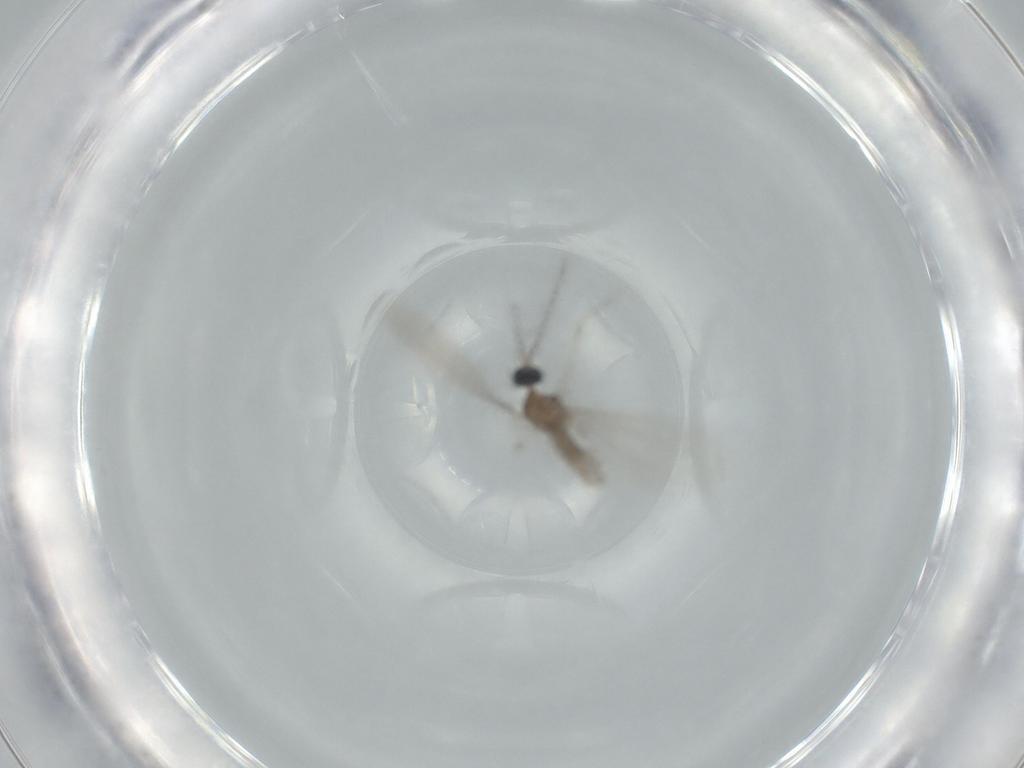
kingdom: Animalia
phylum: Arthropoda
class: Insecta
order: Diptera
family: Cecidomyiidae
